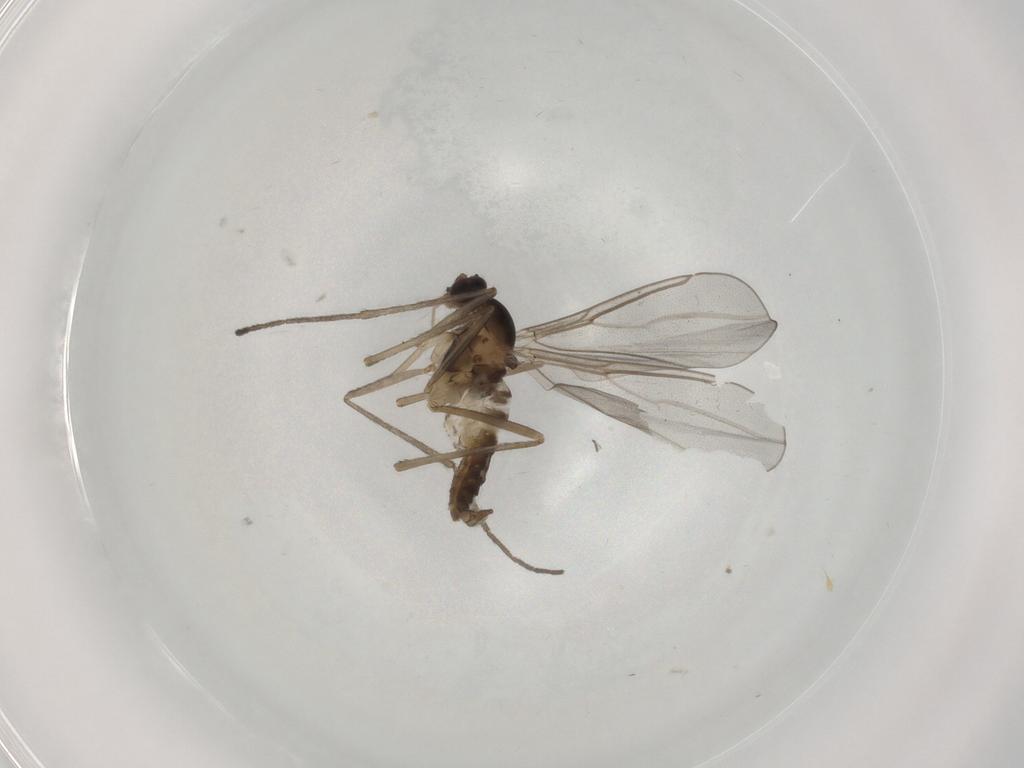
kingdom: Animalia
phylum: Arthropoda
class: Insecta
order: Diptera
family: Cecidomyiidae
